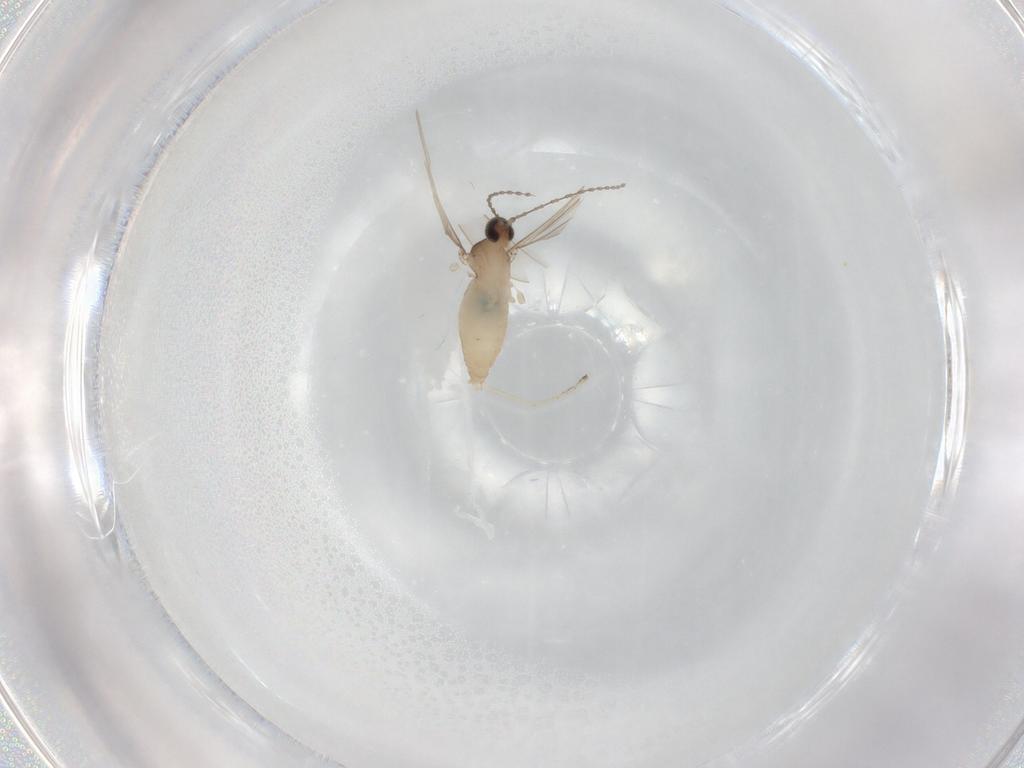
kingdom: Animalia
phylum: Arthropoda
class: Insecta
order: Diptera
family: Cecidomyiidae
